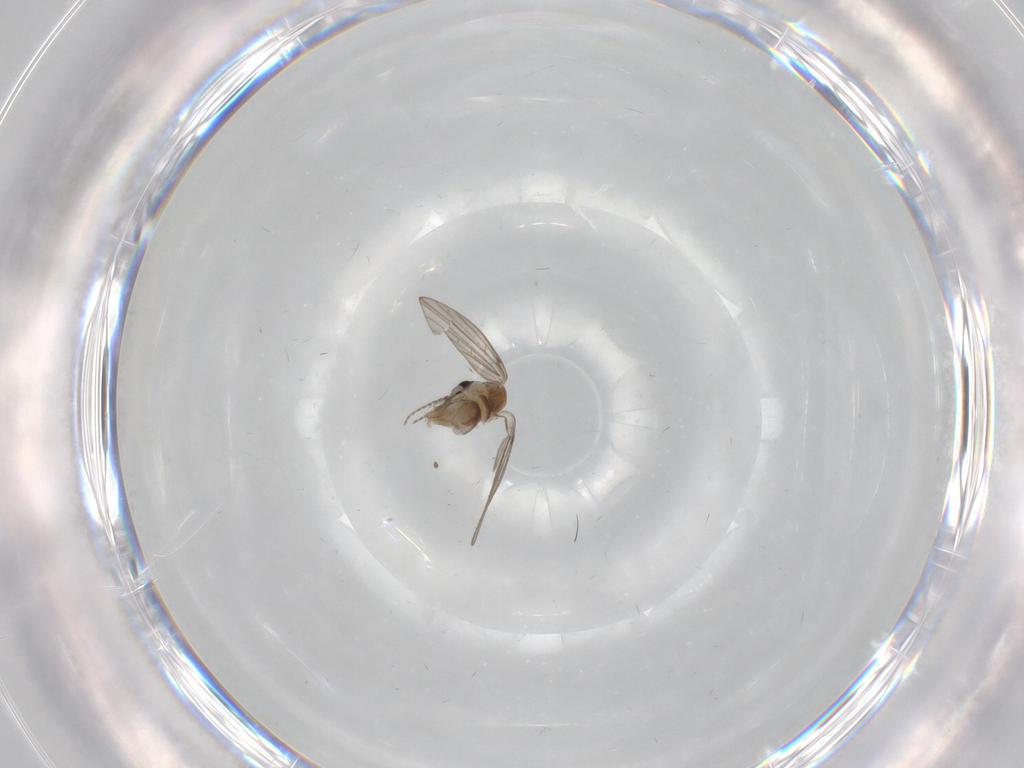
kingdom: Animalia
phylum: Arthropoda
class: Insecta
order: Diptera
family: Psychodidae
